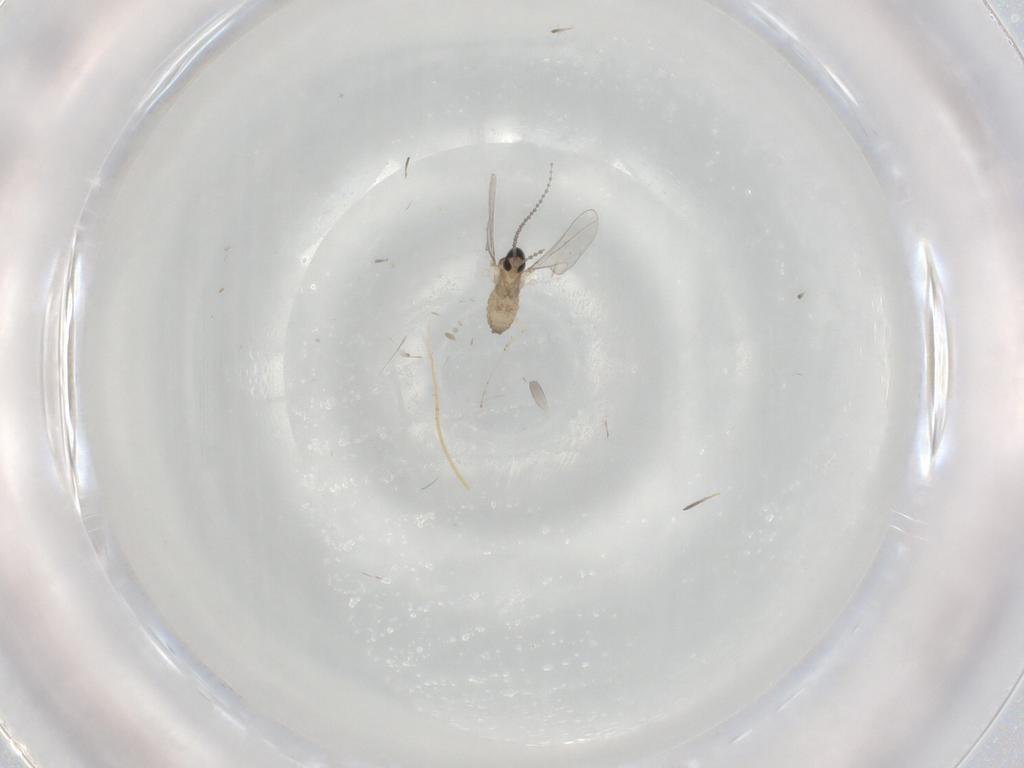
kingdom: Animalia
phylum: Arthropoda
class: Insecta
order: Diptera
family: Cecidomyiidae
